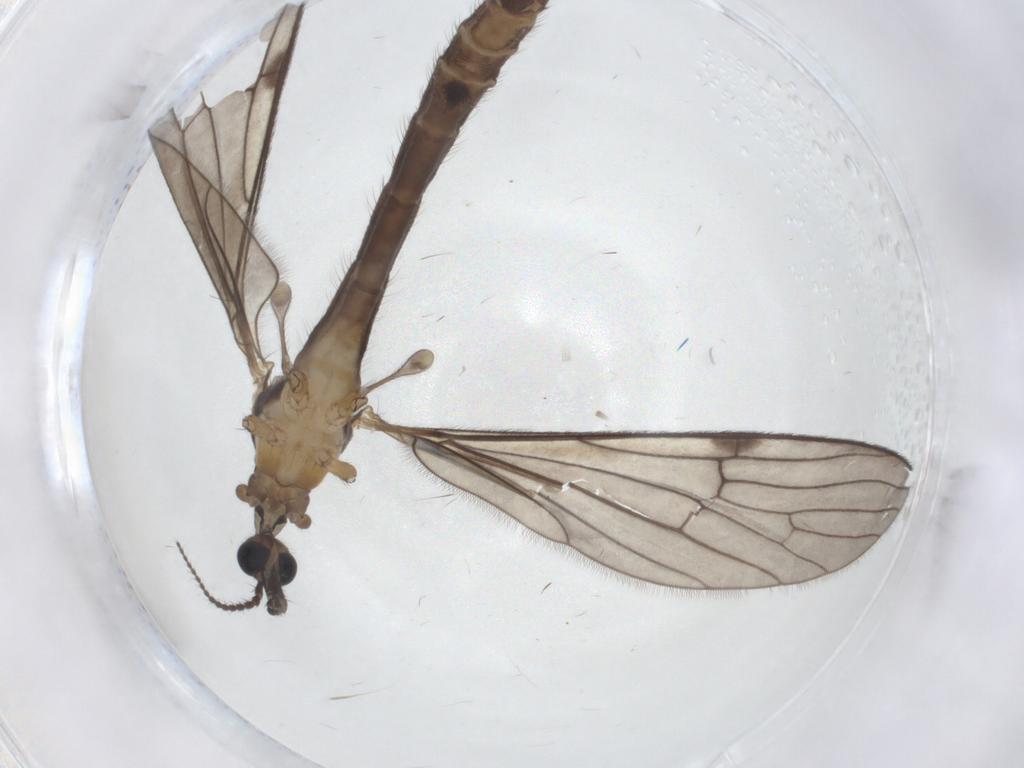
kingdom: Animalia
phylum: Arthropoda
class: Insecta
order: Diptera
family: Limoniidae
